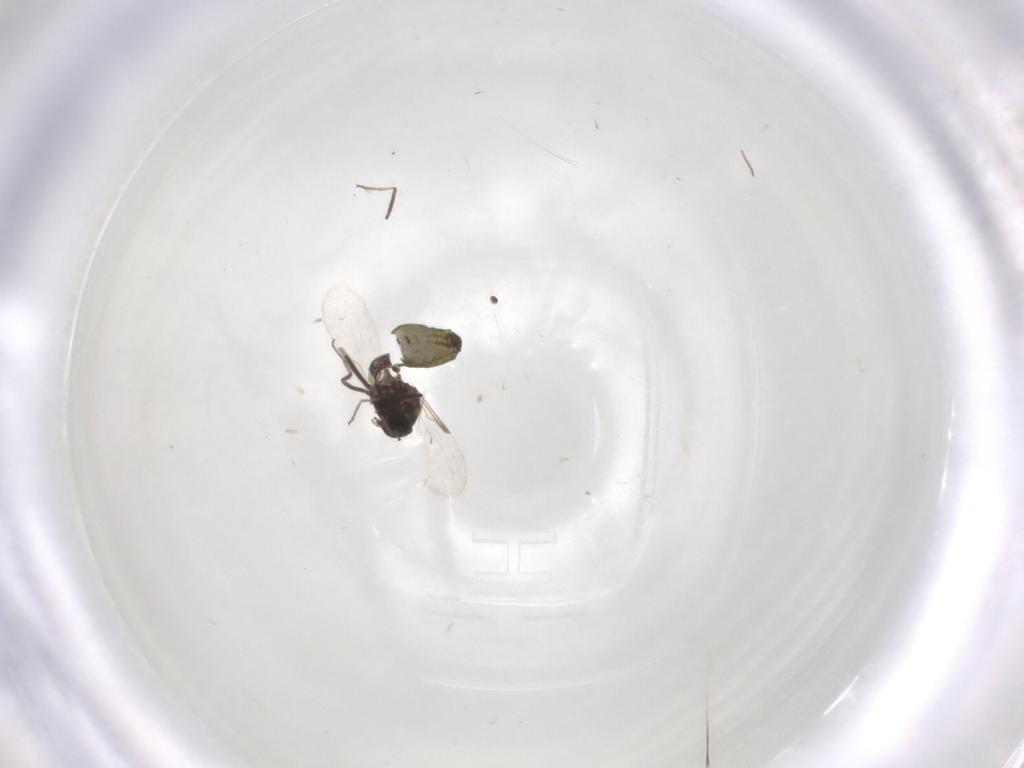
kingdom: Animalia
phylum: Arthropoda
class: Insecta
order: Diptera
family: Ceratopogonidae
